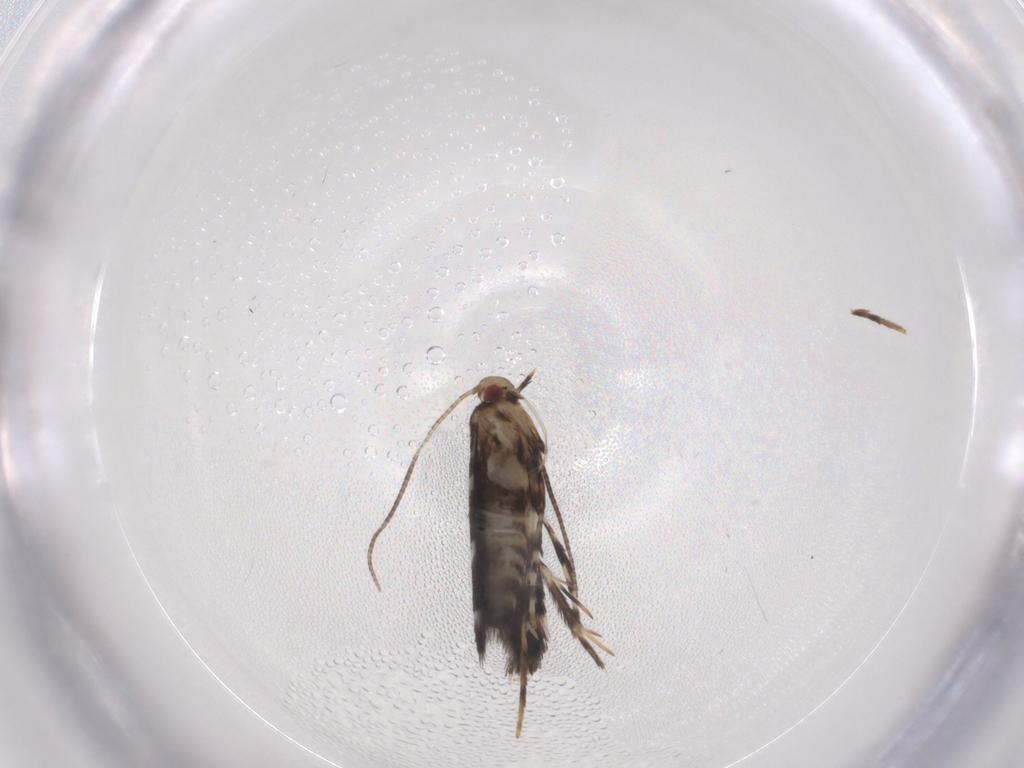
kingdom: Animalia
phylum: Arthropoda
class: Insecta
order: Lepidoptera
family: Gracillariidae
